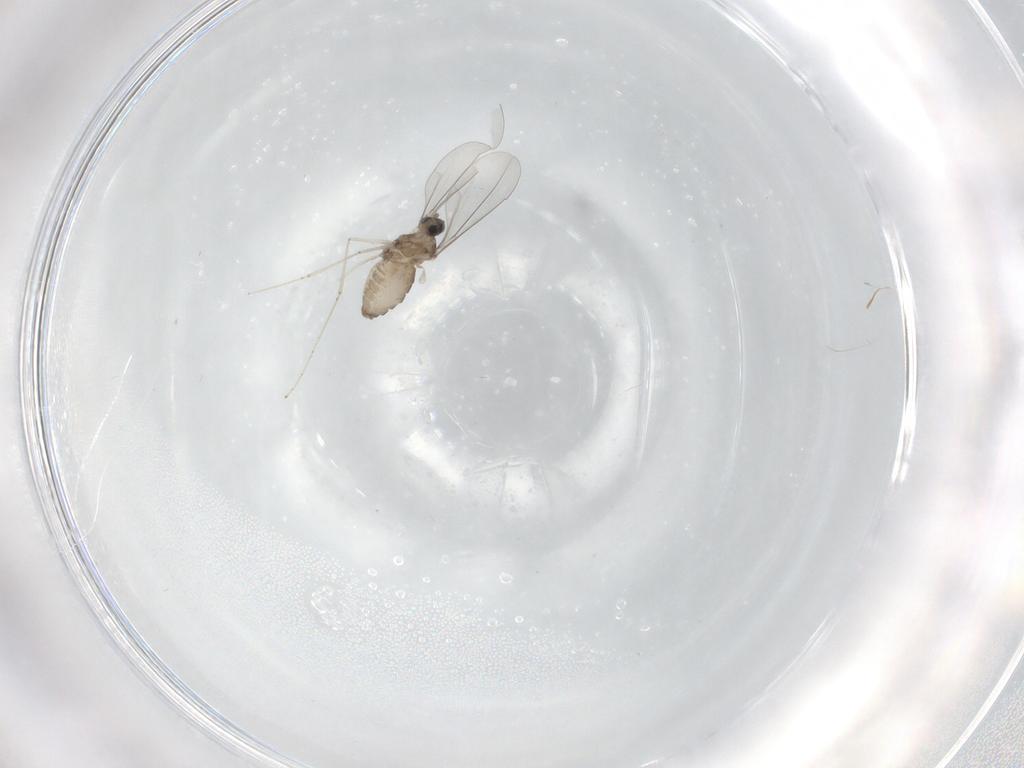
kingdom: Animalia
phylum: Arthropoda
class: Insecta
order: Diptera
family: Cecidomyiidae
